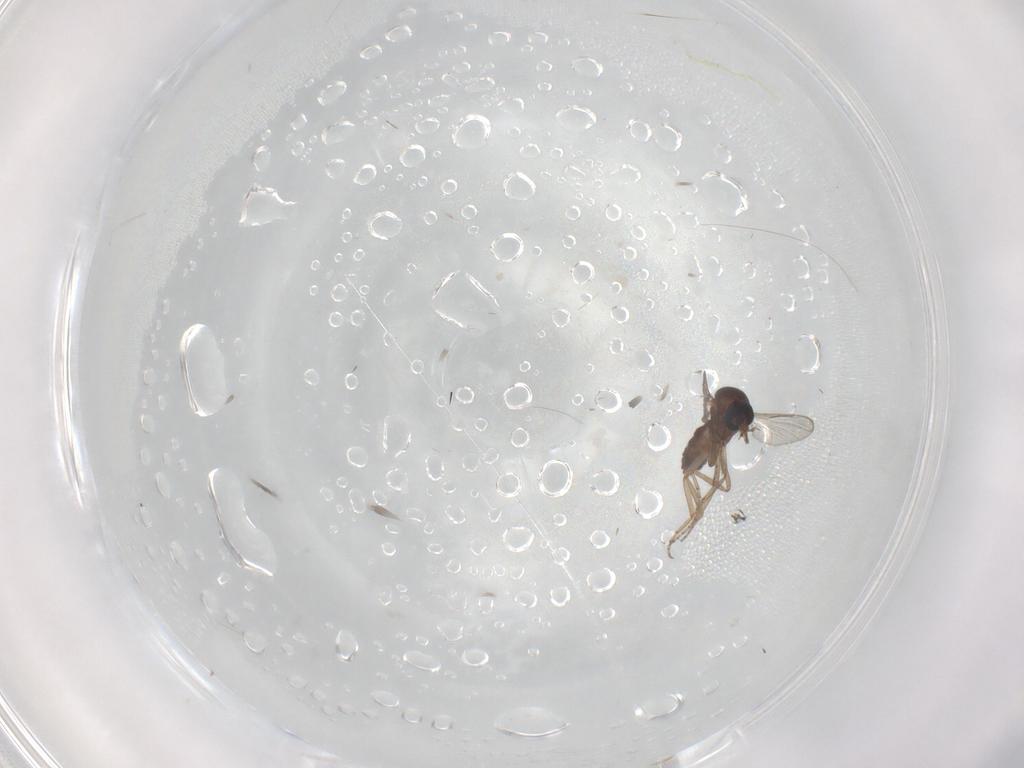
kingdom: Animalia
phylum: Arthropoda
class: Insecta
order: Diptera
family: Ceratopogonidae
